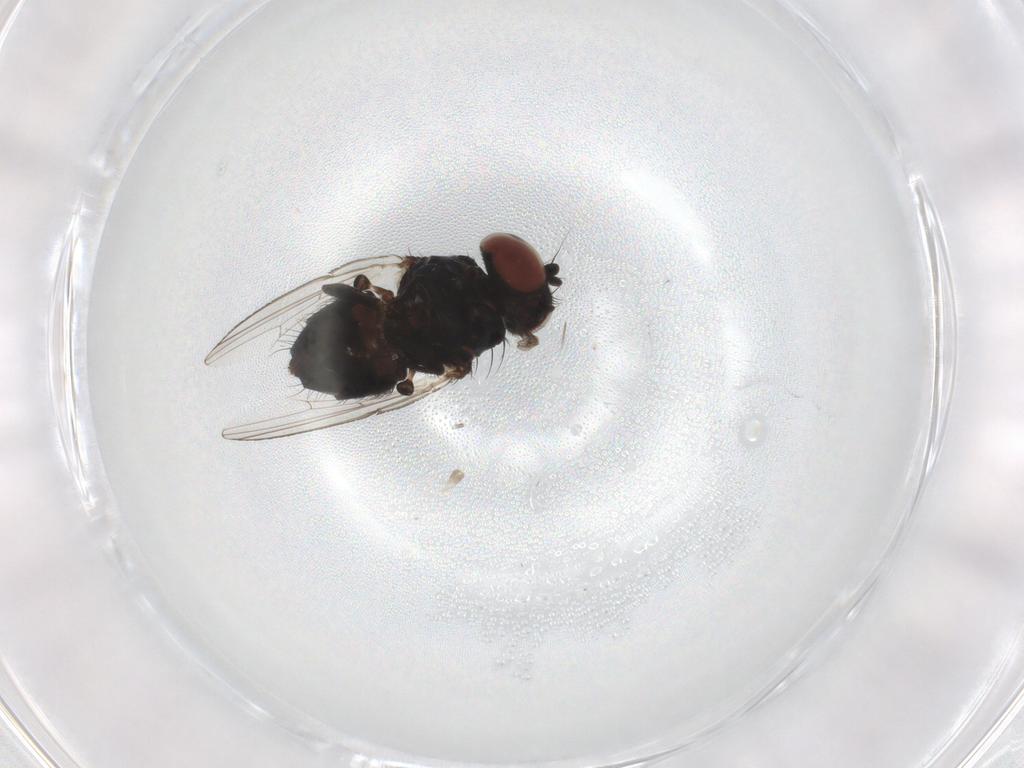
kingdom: Animalia
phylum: Arthropoda
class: Insecta
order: Diptera
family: Milichiidae
